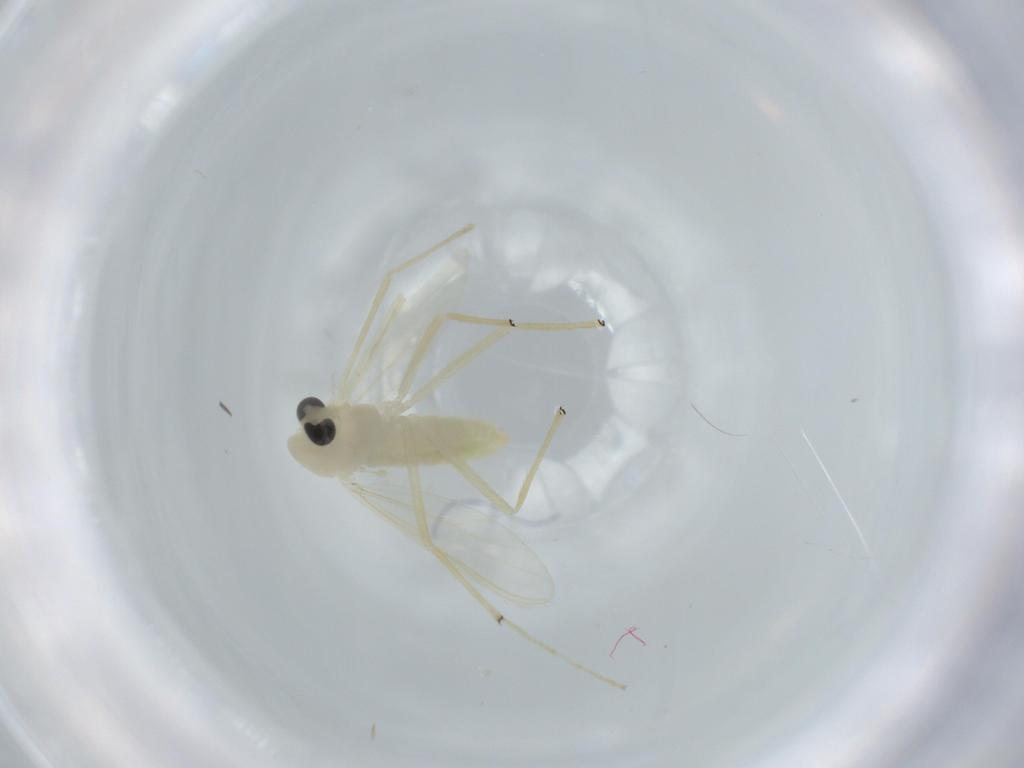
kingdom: Animalia
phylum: Arthropoda
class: Insecta
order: Diptera
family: Chironomidae
